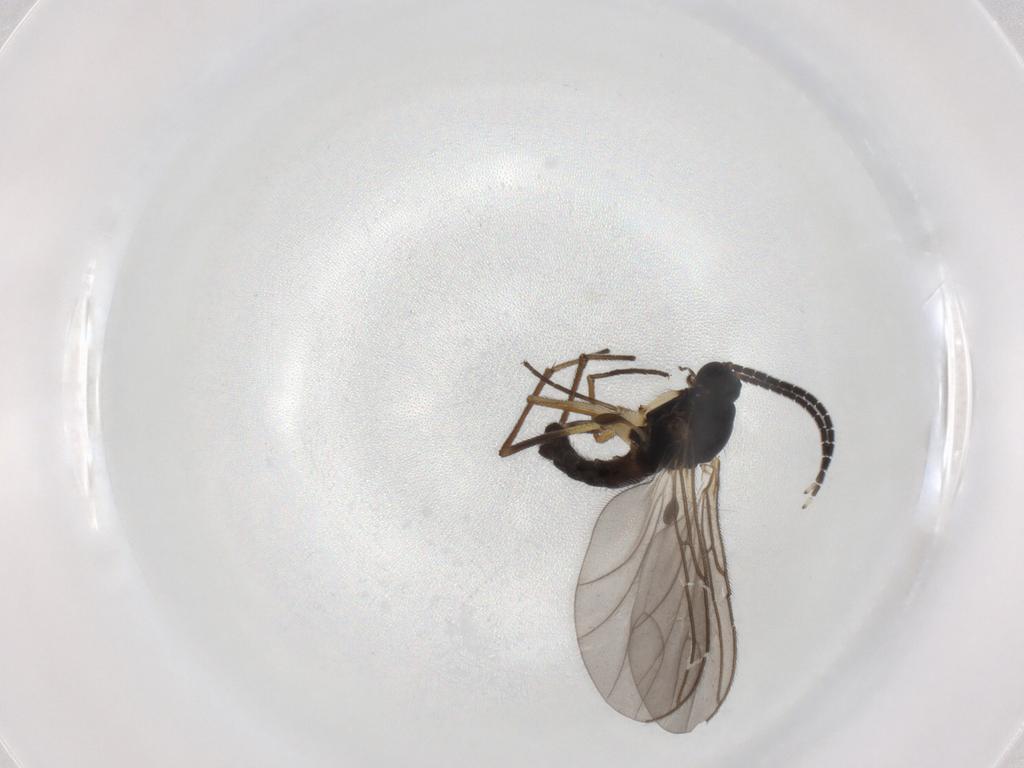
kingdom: Animalia
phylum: Arthropoda
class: Insecta
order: Diptera
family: Sciaridae
